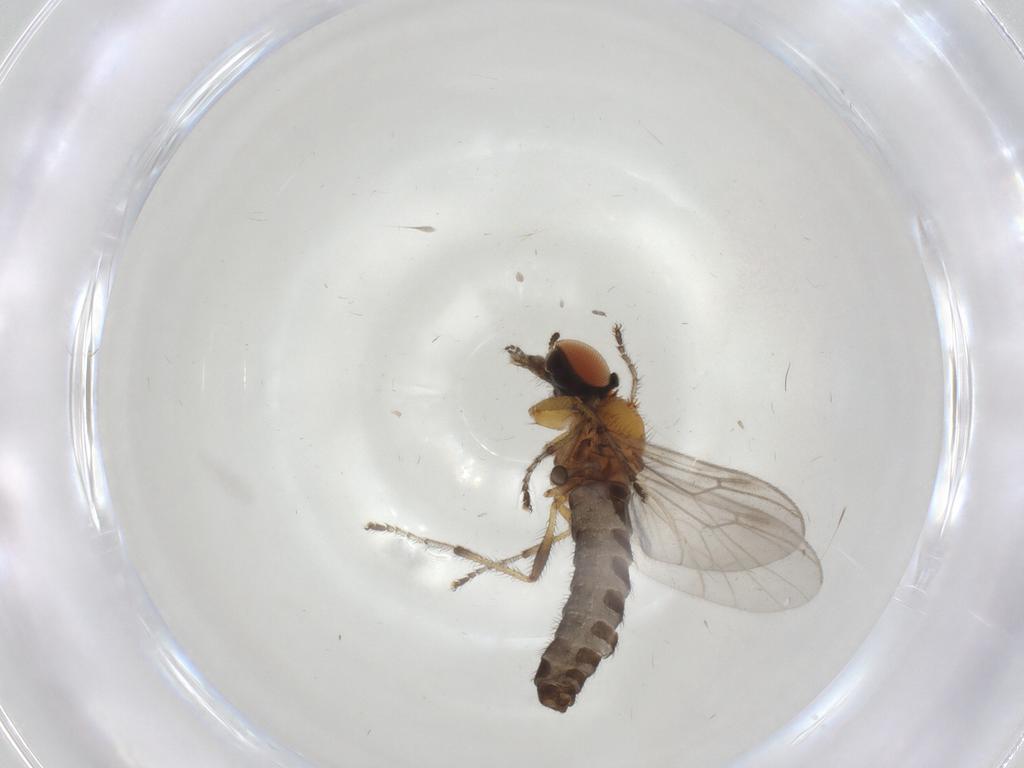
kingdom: Animalia
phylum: Arthropoda
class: Insecta
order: Diptera
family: Bibionidae
